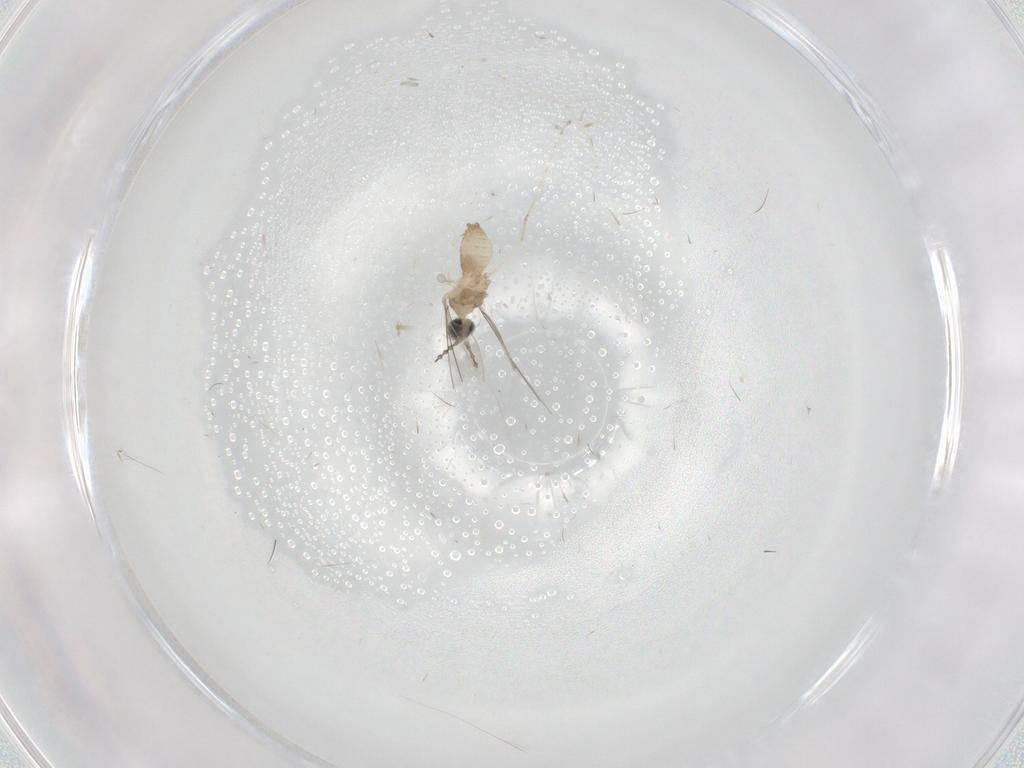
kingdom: Animalia
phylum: Arthropoda
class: Insecta
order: Diptera
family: Cecidomyiidae
